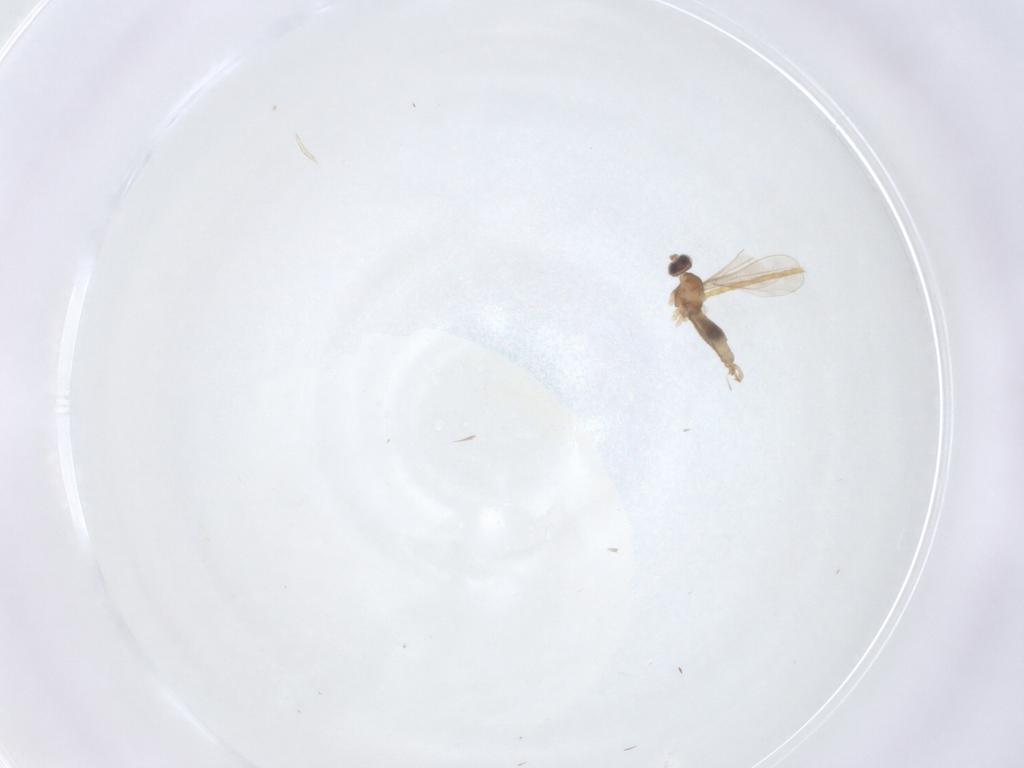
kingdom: Animalia
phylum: Arthropoda
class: Insecta
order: Diptera
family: Cecidomyiidae
